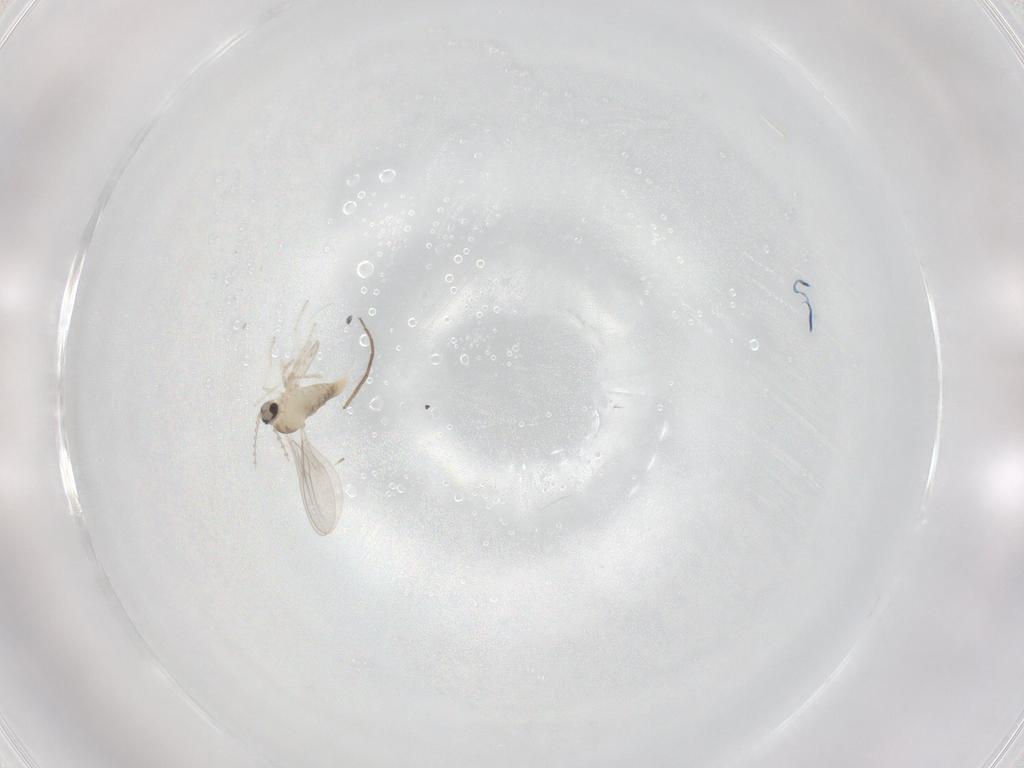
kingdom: Animalia
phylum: Arthropoda
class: Insecta
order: Diptera
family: Cecidomyiidae
